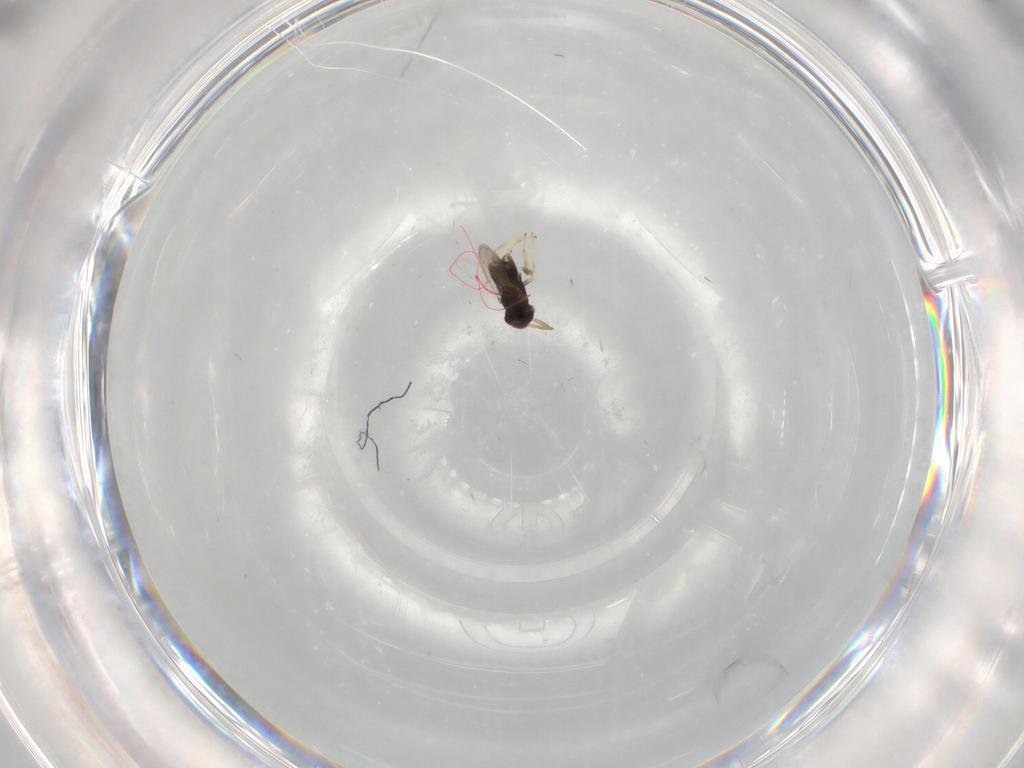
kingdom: Animalia
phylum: Arthropoda
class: Insecta
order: Hymenoptera
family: Aphelinidae
